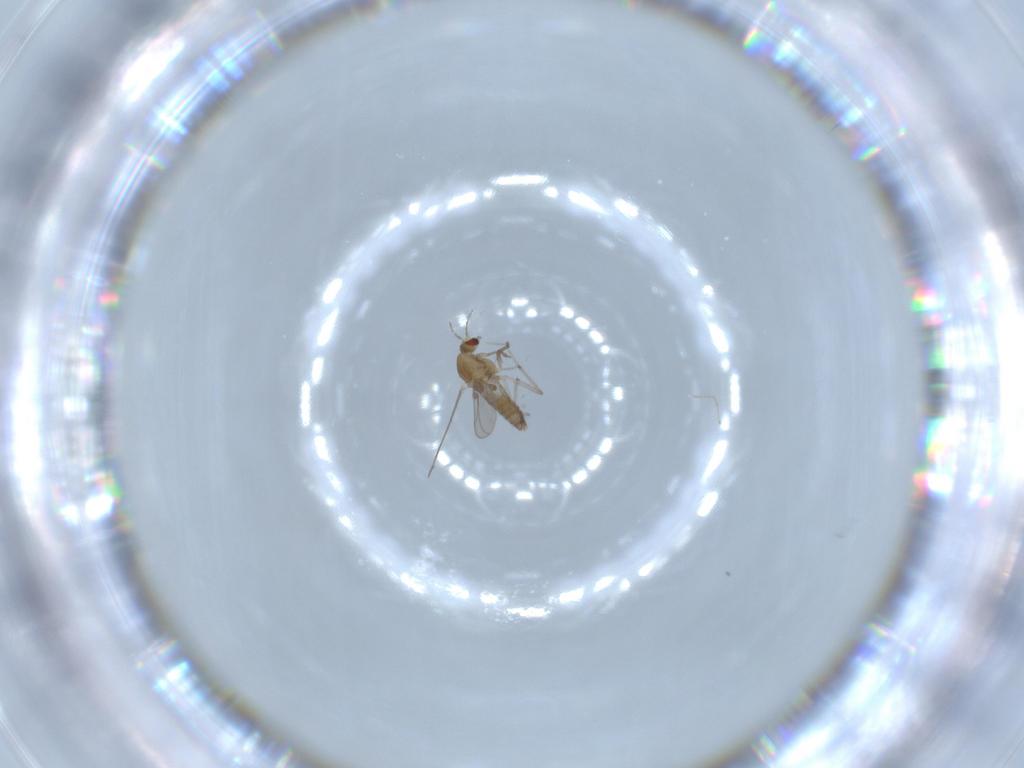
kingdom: Animalia
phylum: Arthropoda
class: Insecta
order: Diptera
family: Chironomidae
